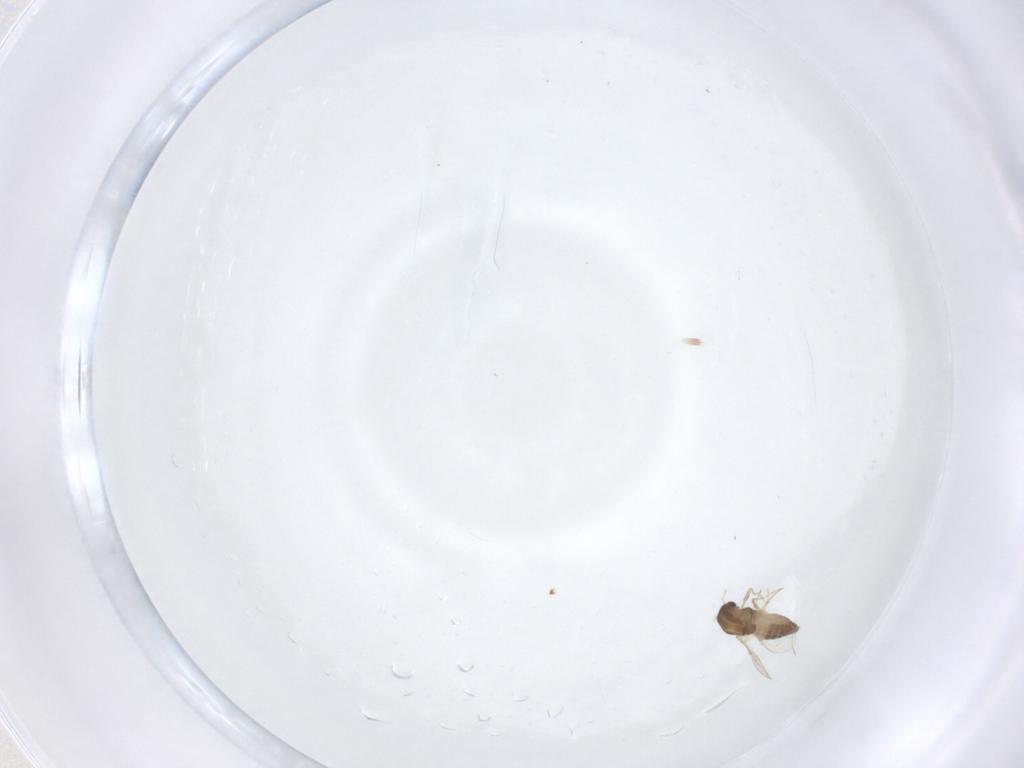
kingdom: Animalia
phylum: Arthropoda
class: Insecta
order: Diptera
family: Chironomidae
